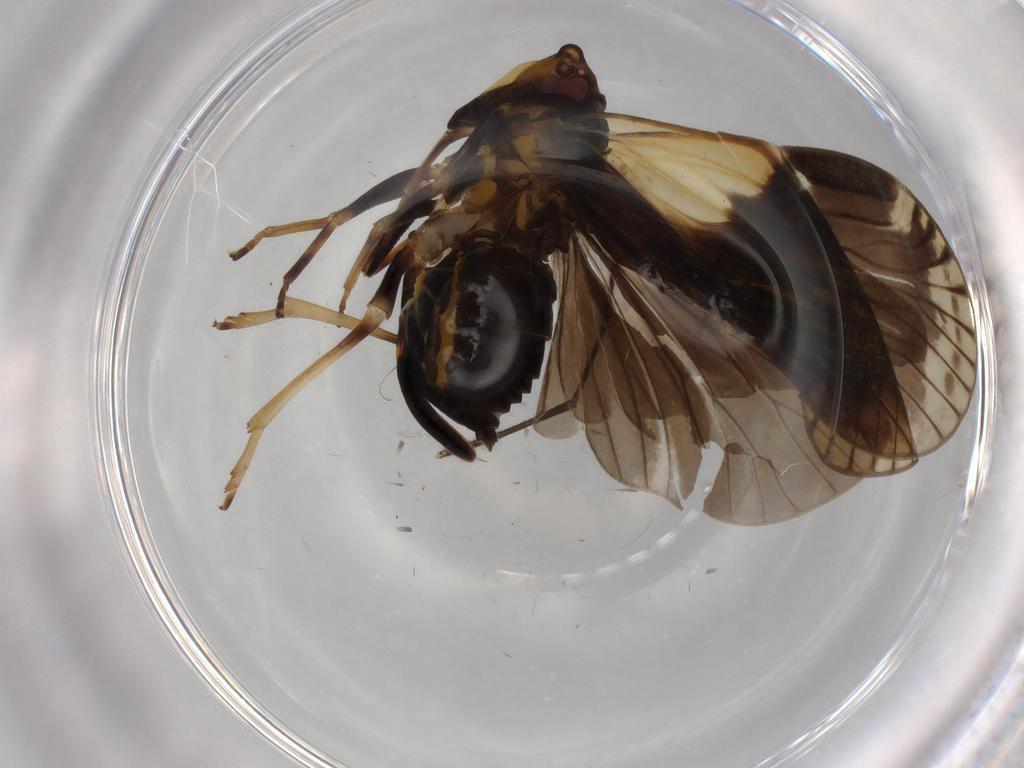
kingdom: Animalia
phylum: Arthropoda
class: Insecta
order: Hemiptera
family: Cixiidae
